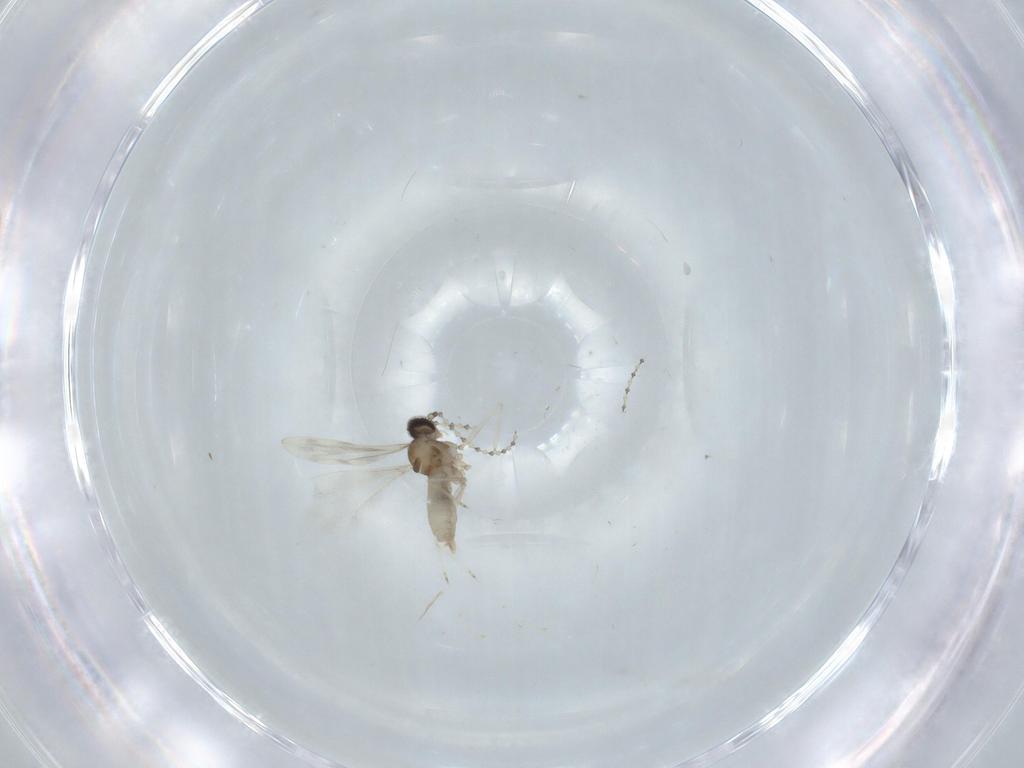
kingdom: Animalia
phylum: Arthropoda
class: Insecta
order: Diptera
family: Cecidomyiidae
